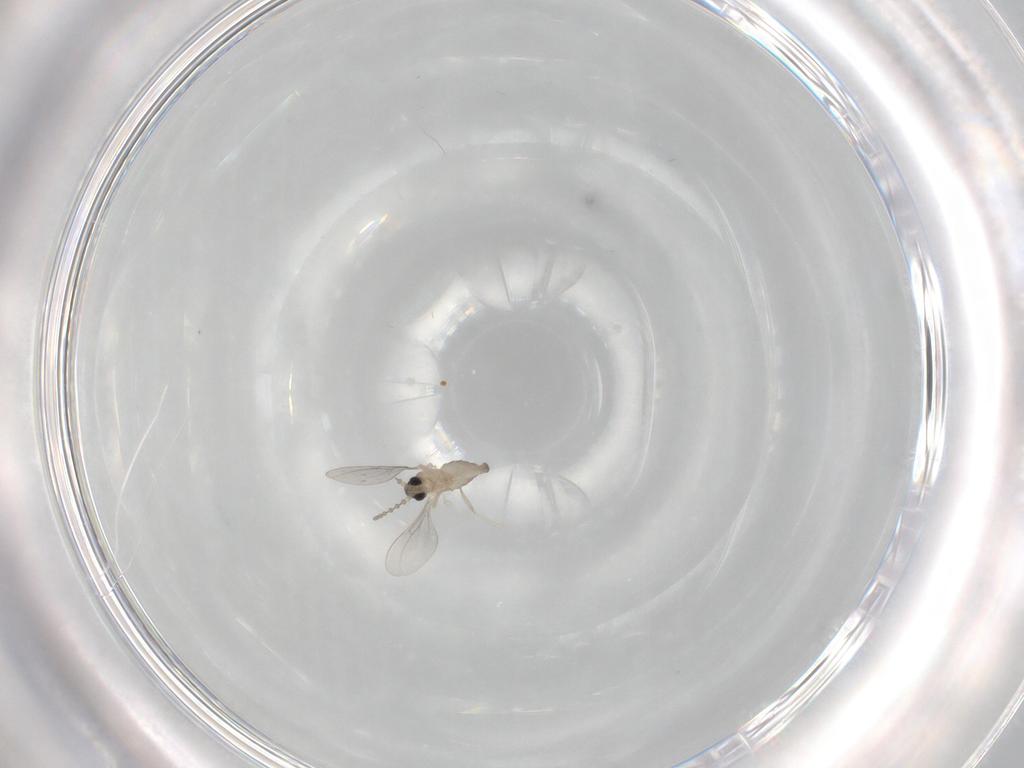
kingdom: Animalia
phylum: Arthropoda
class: Insecta
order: Diptera
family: Cecidomyiidae
